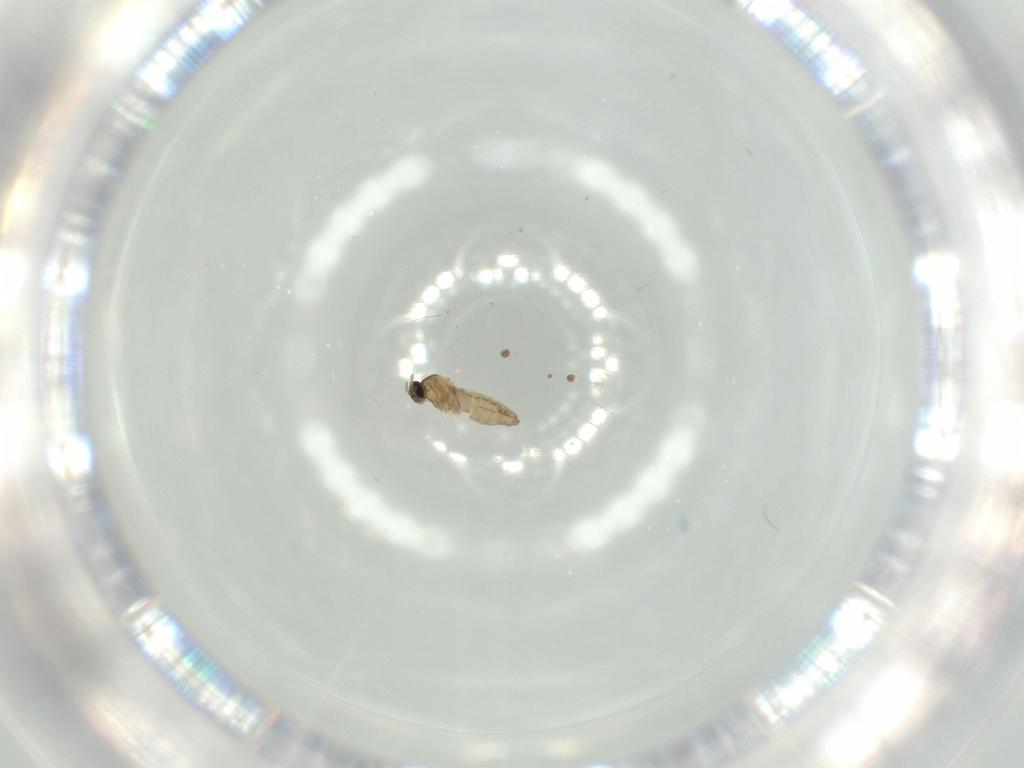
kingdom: Animalia
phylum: Arthropoda
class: Insecta
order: Diptera
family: Cecidomyiidae
